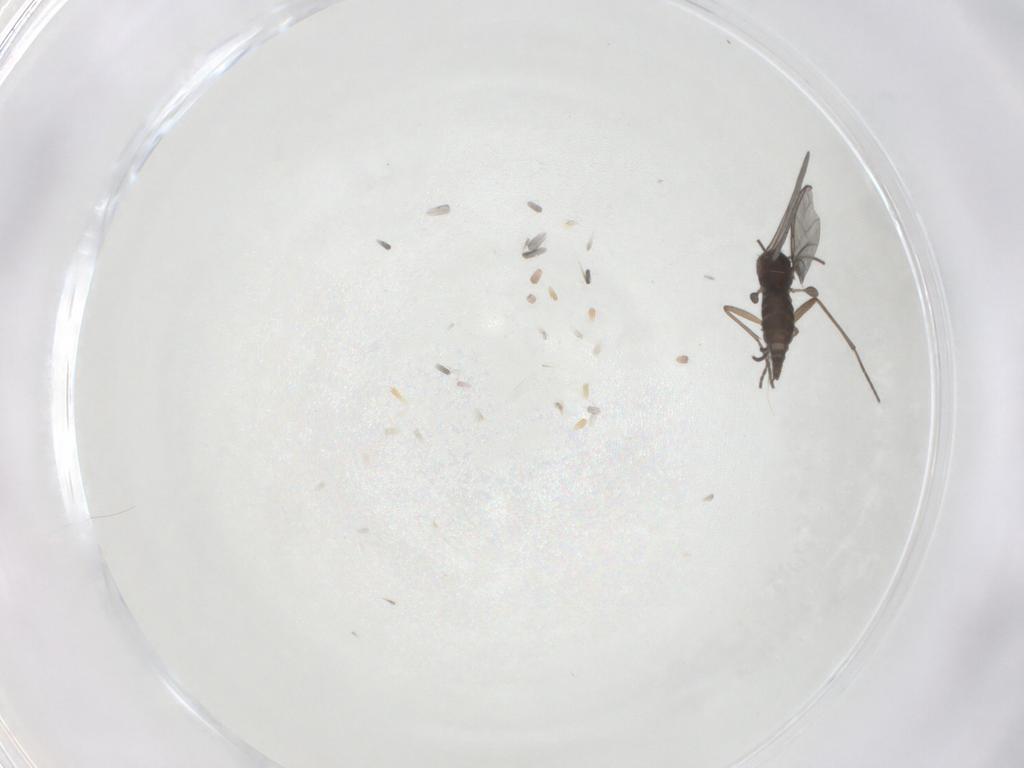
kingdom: Animalia
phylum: Arthropoda
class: Insecta
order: Diptera
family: Sciaridae
